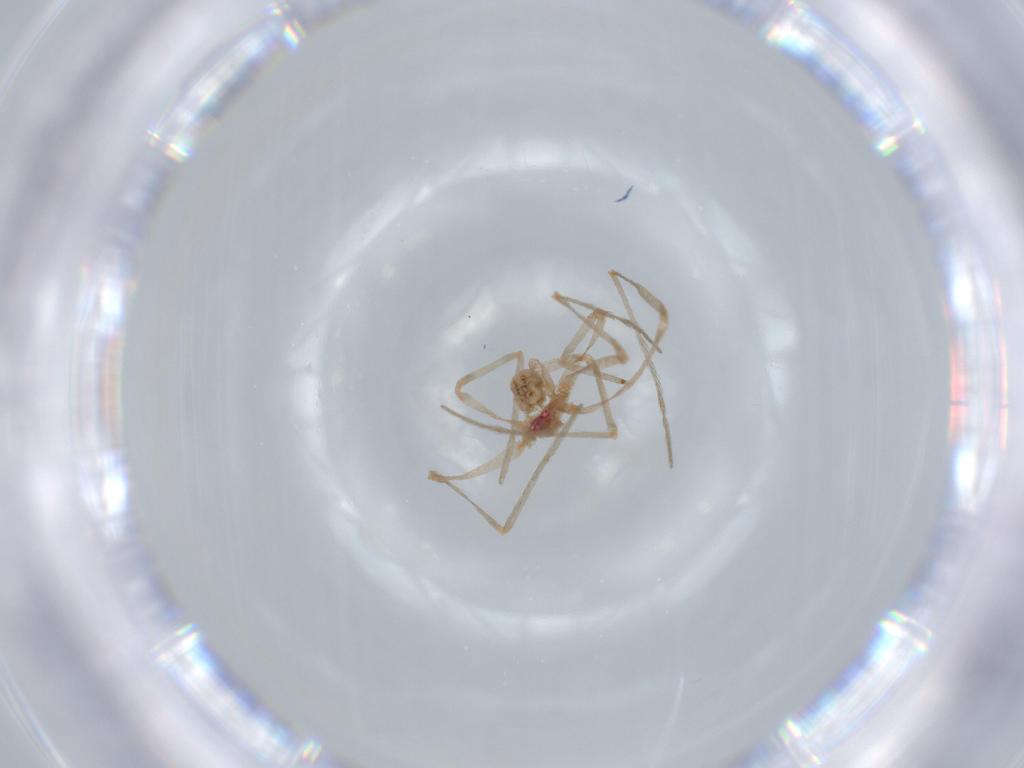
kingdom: Animalia
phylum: Arthropoda
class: Arachnida
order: Araneae
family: Pholcidae
